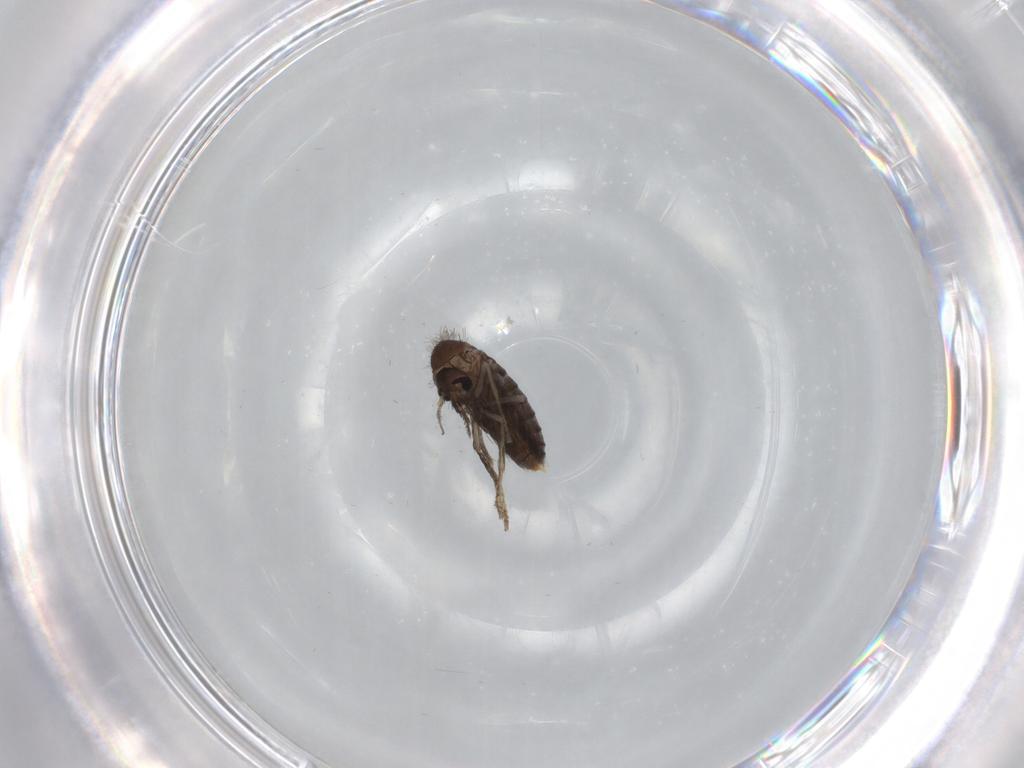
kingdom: Animalia
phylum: Arthropoda
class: Insecta
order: Diptera
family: Psychodidae
